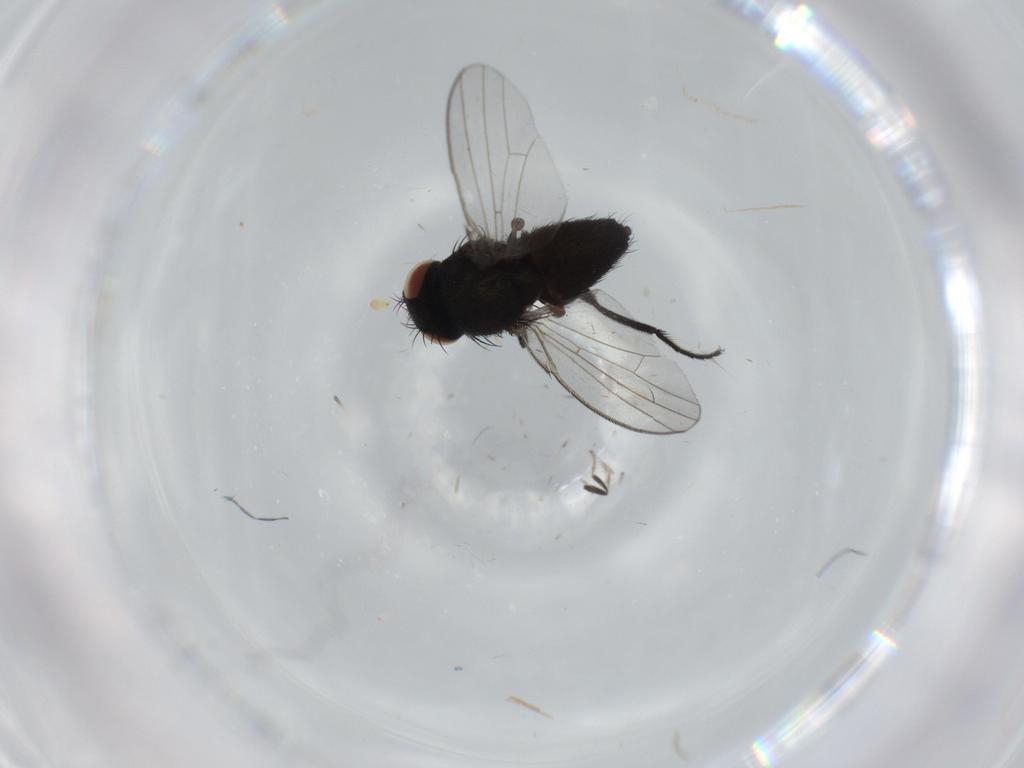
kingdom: Animalia
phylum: Arthropoda
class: Insecta
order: Diptera
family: Milichiidae
